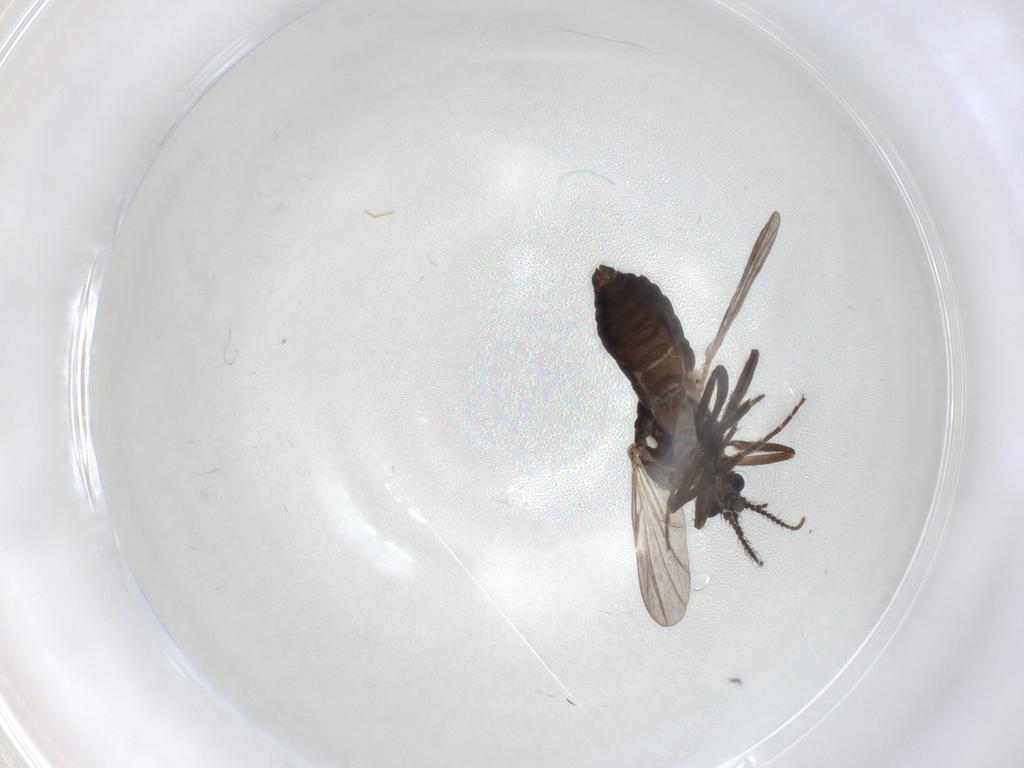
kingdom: Animalia
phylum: Arthropoda
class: Insecta
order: Diptera
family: Ceratopogonidae
